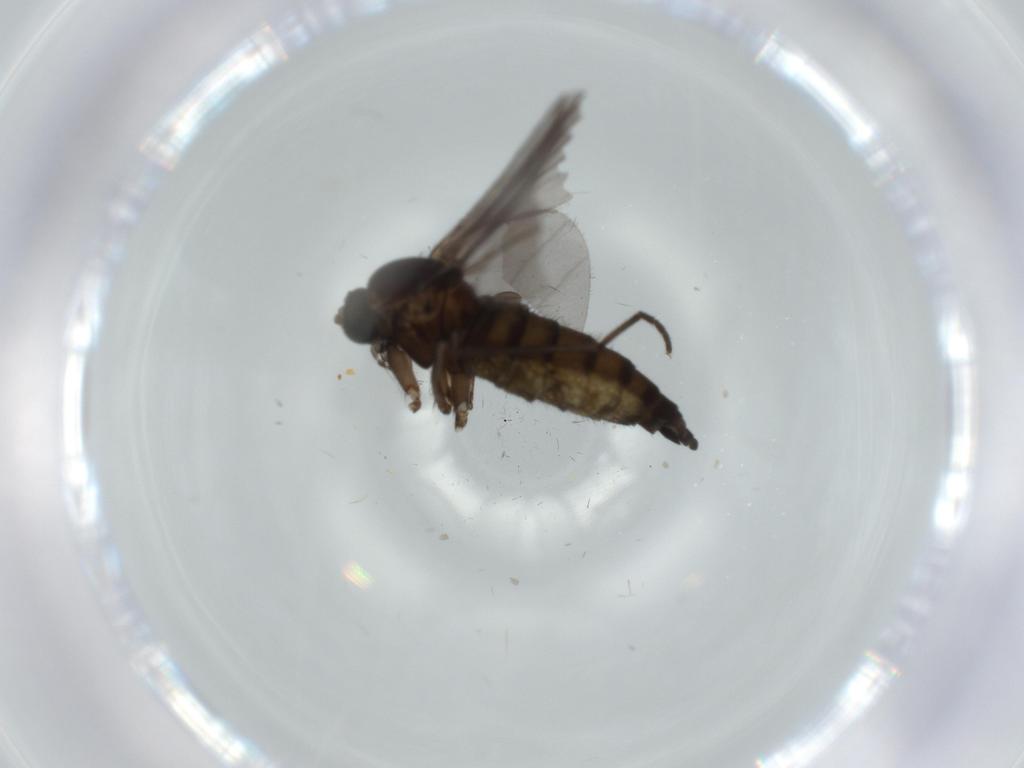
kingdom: Animalia
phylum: Arthropoda
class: Insecta
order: Diptera
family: Sciaridae
